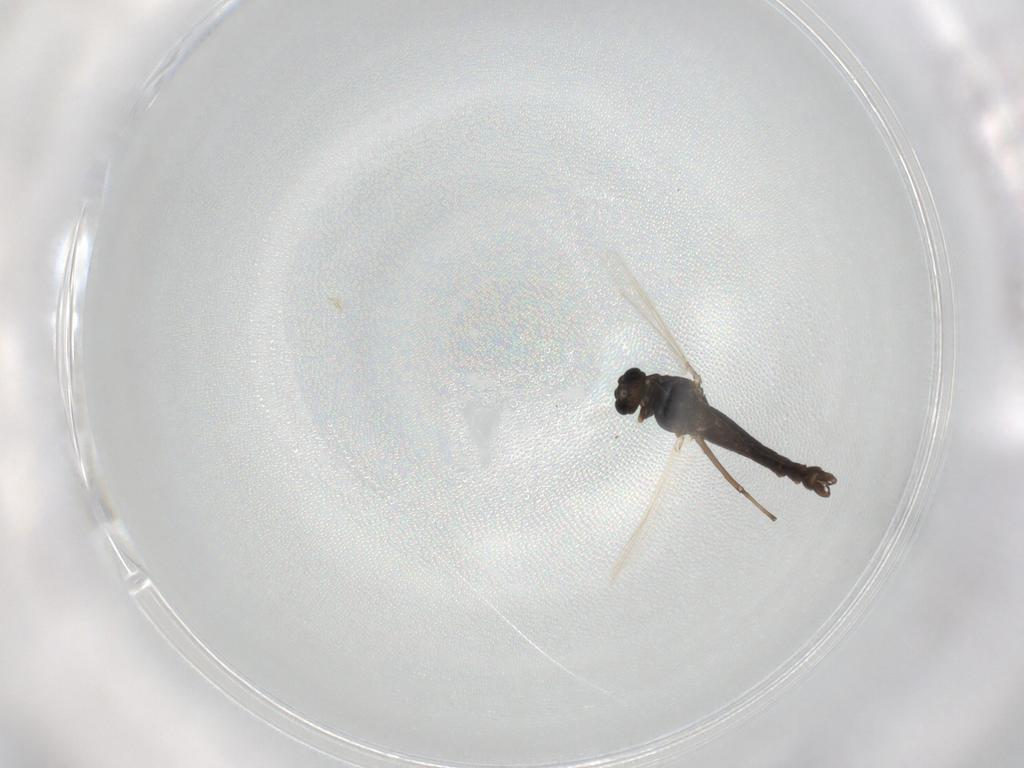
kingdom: Animalia
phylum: Arthropoda
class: Insecta
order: Diptera
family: Chironomidae
